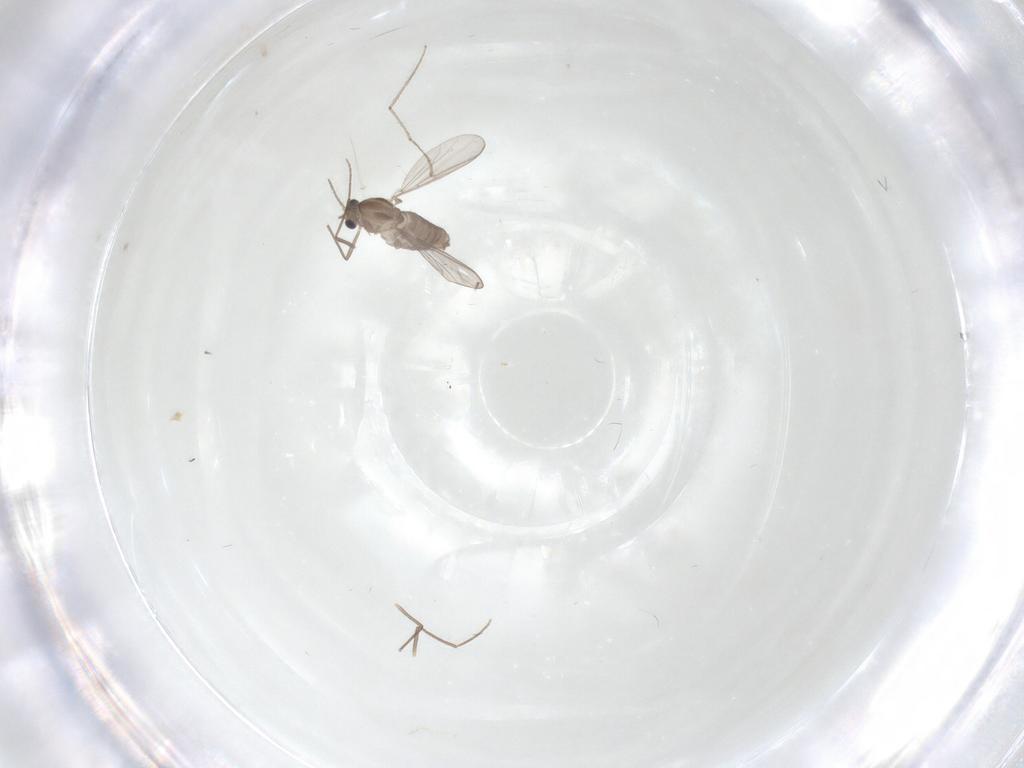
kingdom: Animalia
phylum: Arthropoda
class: Insecta
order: Diptera
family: Chironomidae
